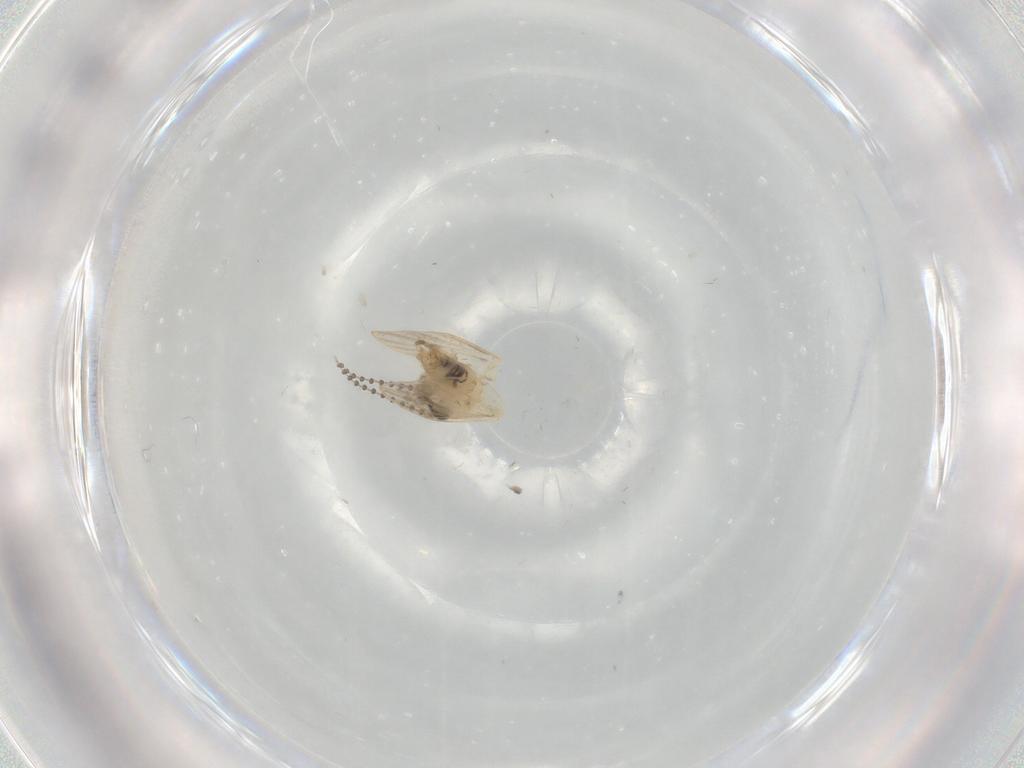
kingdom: Animalia
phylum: Arthropoda
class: Insecta
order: Diptera
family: Psychodidae
